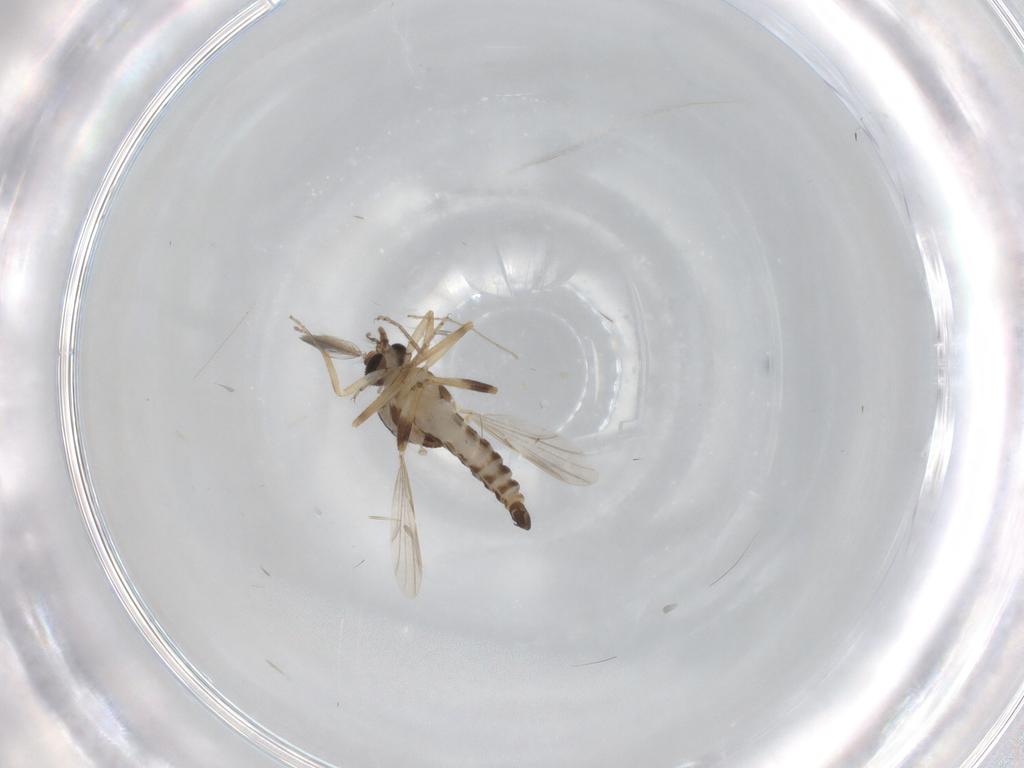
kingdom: Animalia
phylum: Arthropoda
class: Insecta
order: Diptera
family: Ceratopogonidae
